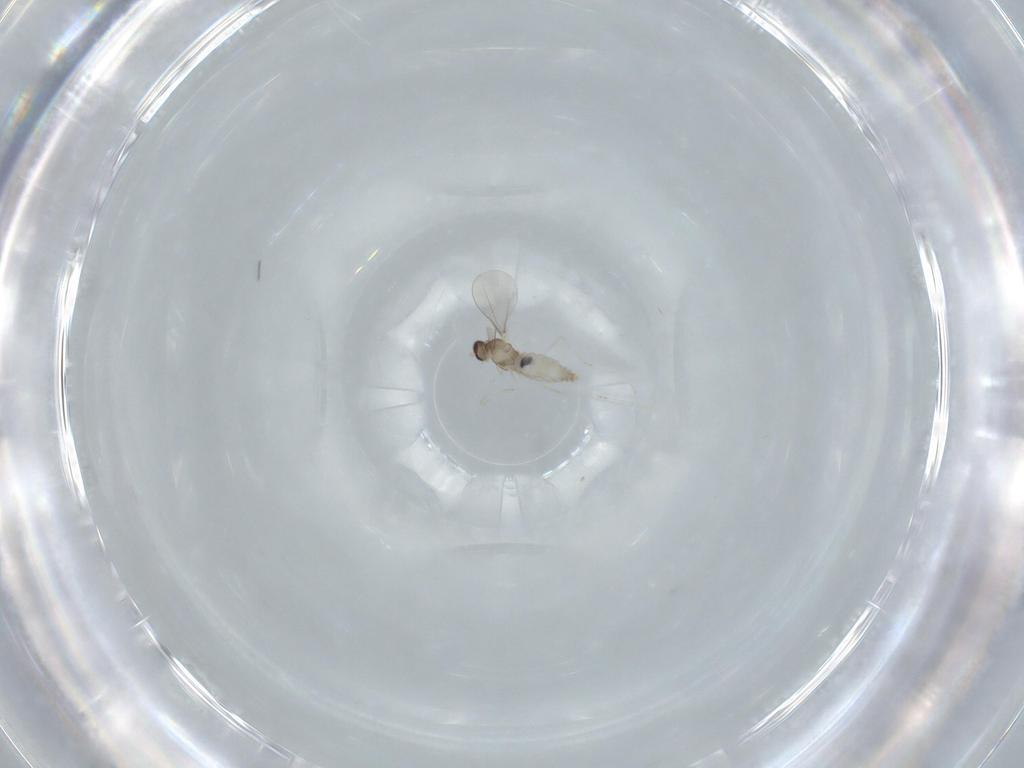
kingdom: Animalia
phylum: Arthropoda
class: Insecta
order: Diptera
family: Cecidomyiidae
